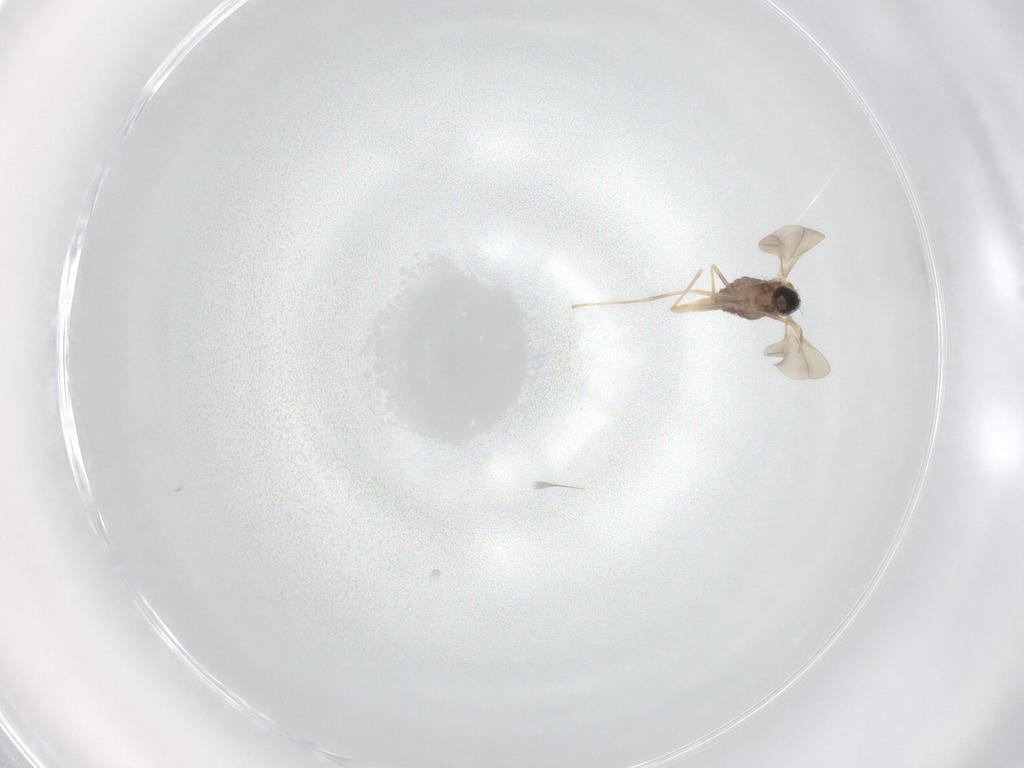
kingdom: Animalia
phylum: Arthropoda
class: Insecta
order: Diptera
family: Cecidomyiidae
